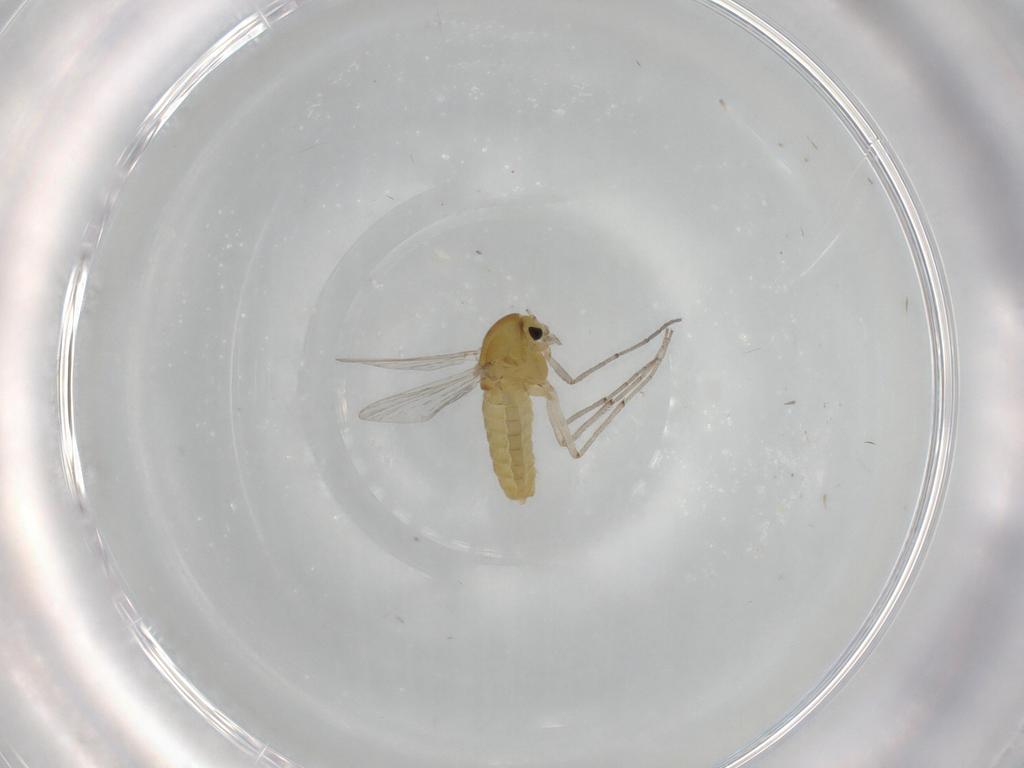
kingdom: Animalia
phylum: Arthropoda
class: Insecta
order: Diptera
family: Chironomidae
